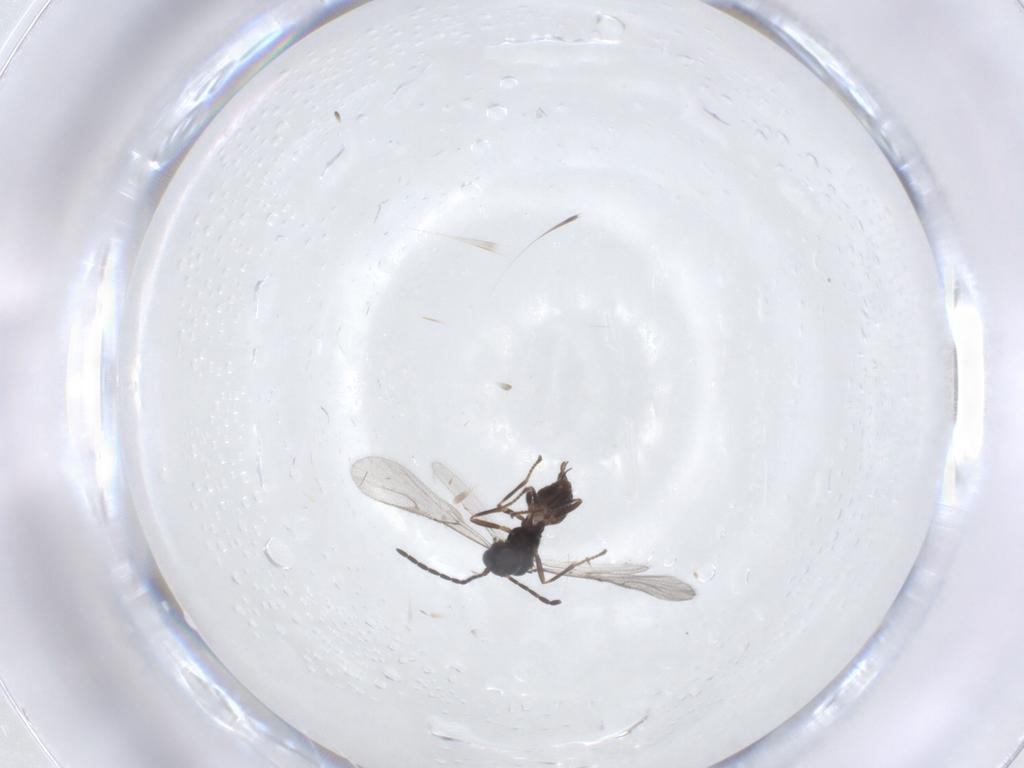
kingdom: Animalia
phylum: Arthropoda
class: Insecta
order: Hymenoptera
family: Braconidae
